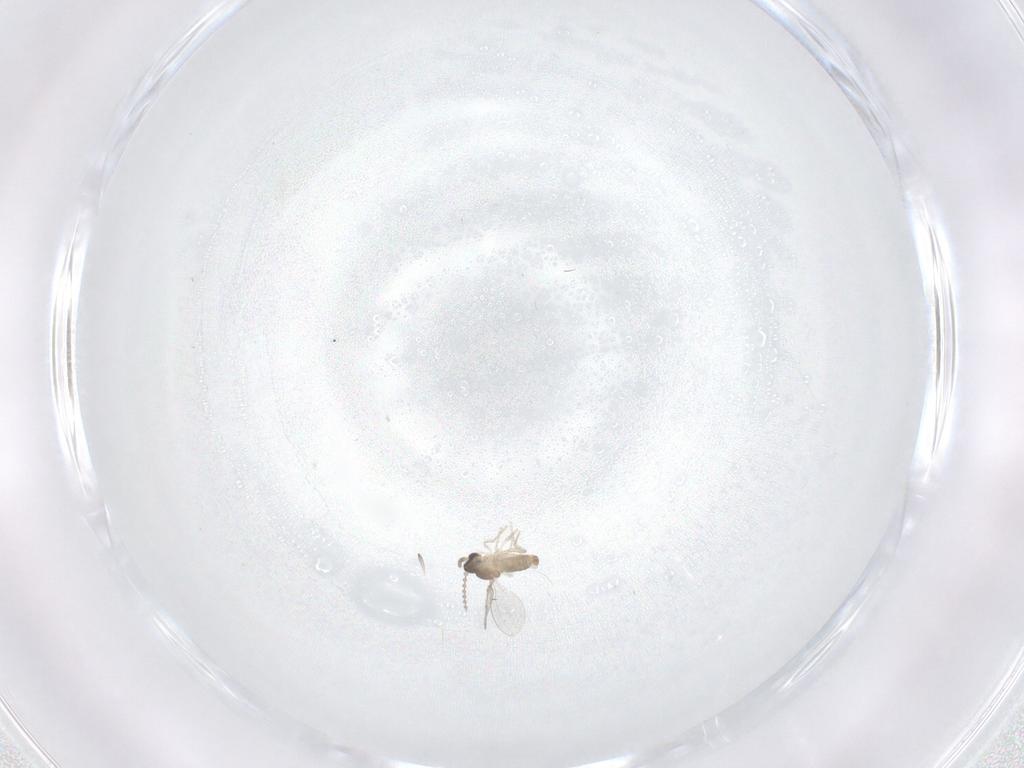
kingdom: Animalia
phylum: Arthropoda
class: Insecta
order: Diptera
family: Cecidomyiidae
